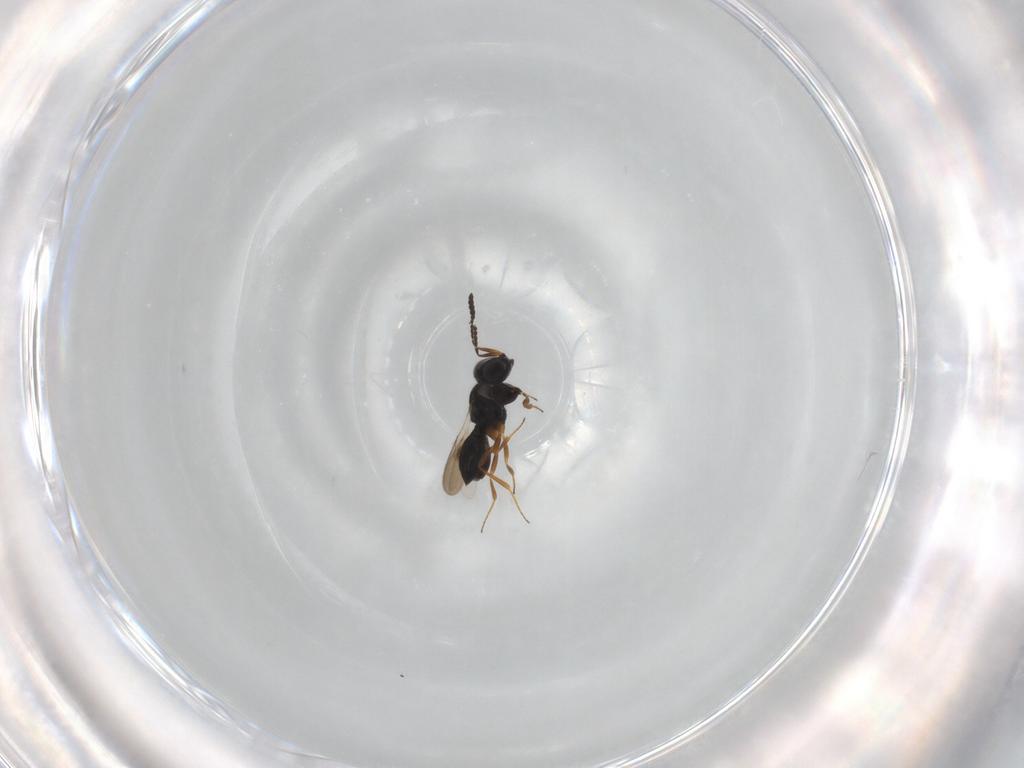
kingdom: Animalia
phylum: Arthropoda
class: Insecta
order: Hymenoptera
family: Scelionidae
